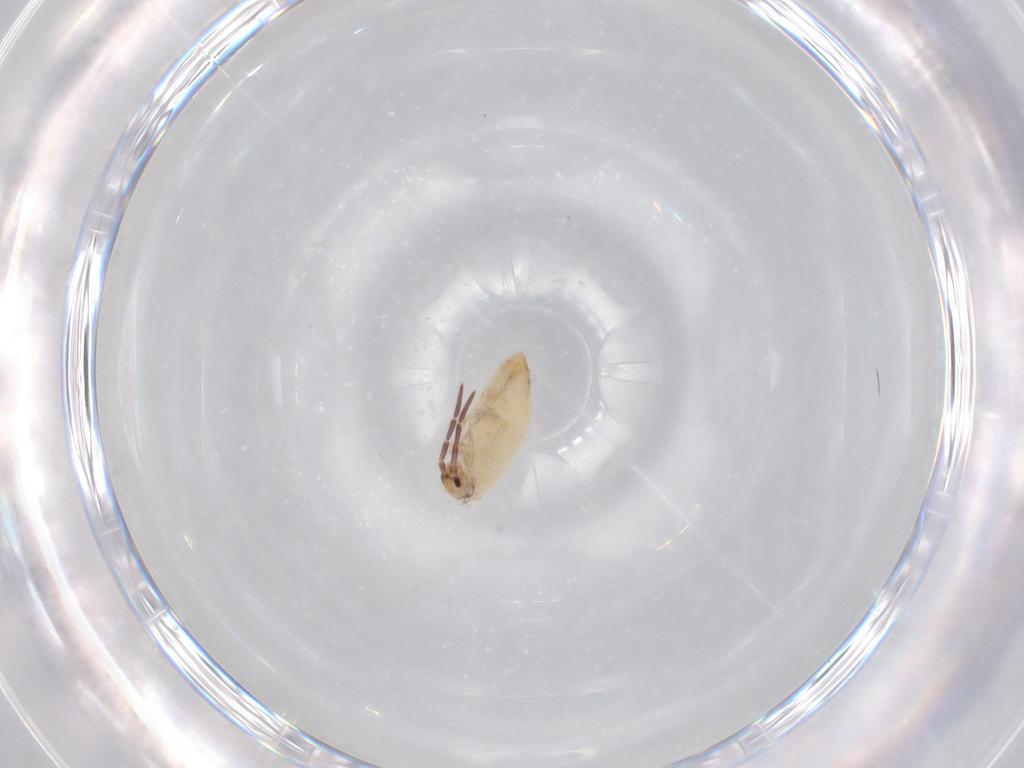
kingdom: Animalia
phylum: Arthropoda
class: Collembola
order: Entomobryomorpha
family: Entomobryidae
